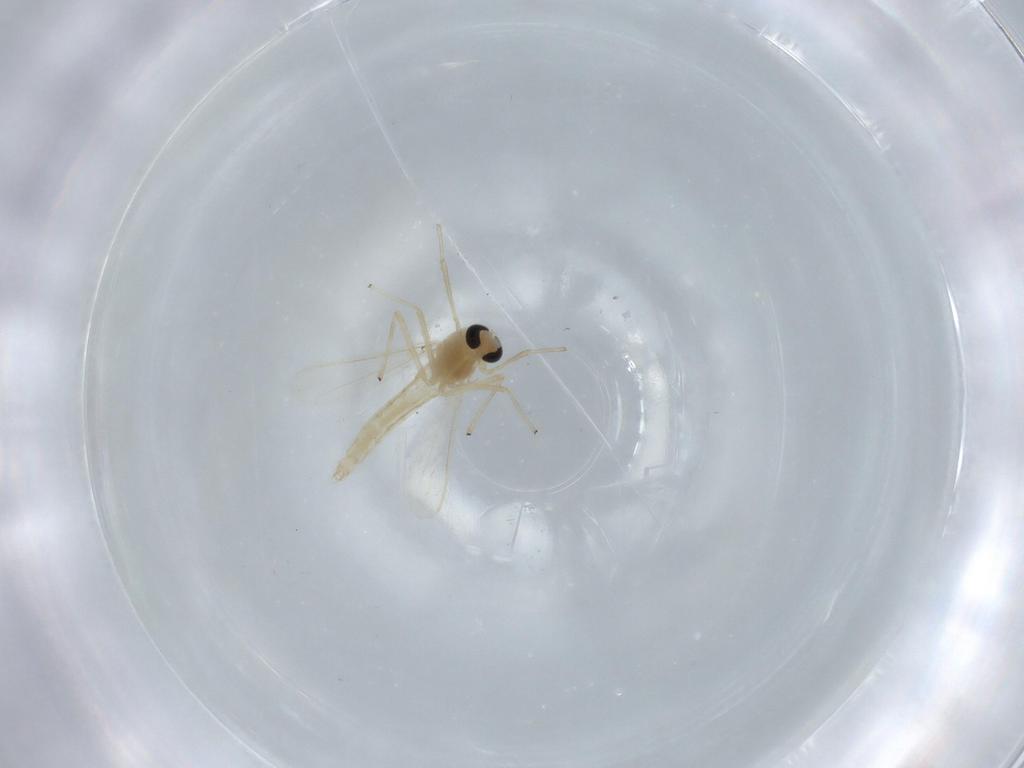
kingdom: Animalia
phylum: Arthropoda
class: Insecta
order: Diptera
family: Chironomidae
